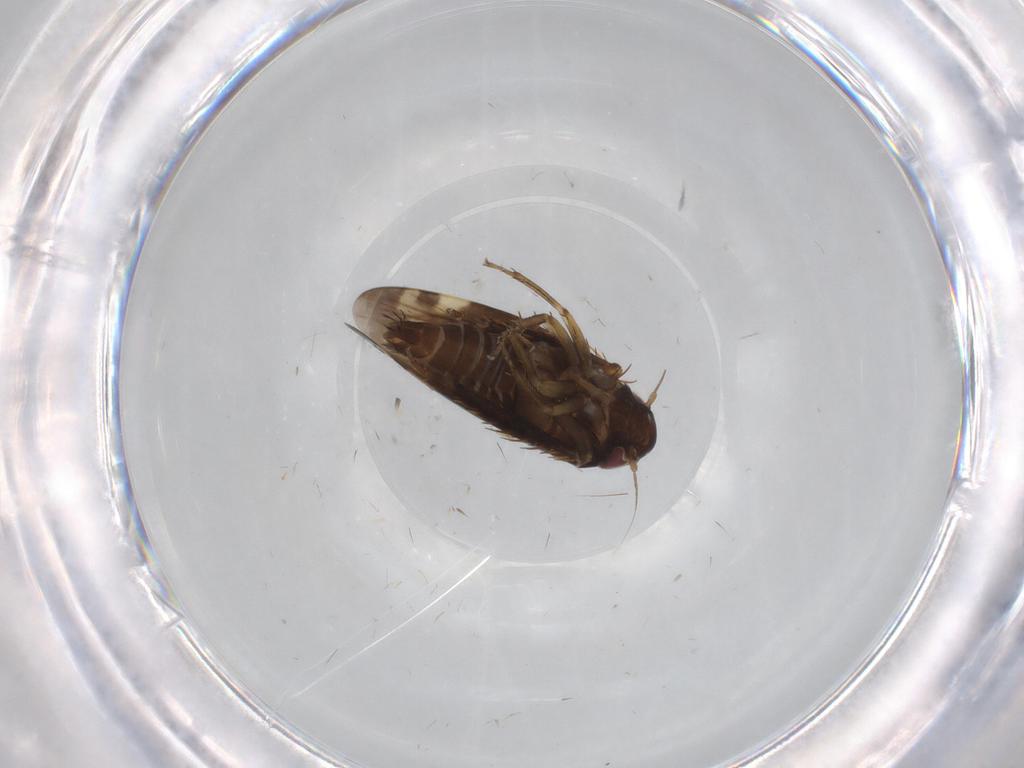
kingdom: Animalia
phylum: Arthropoda
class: Insecta
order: Hemiptera
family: Cicadellidae
